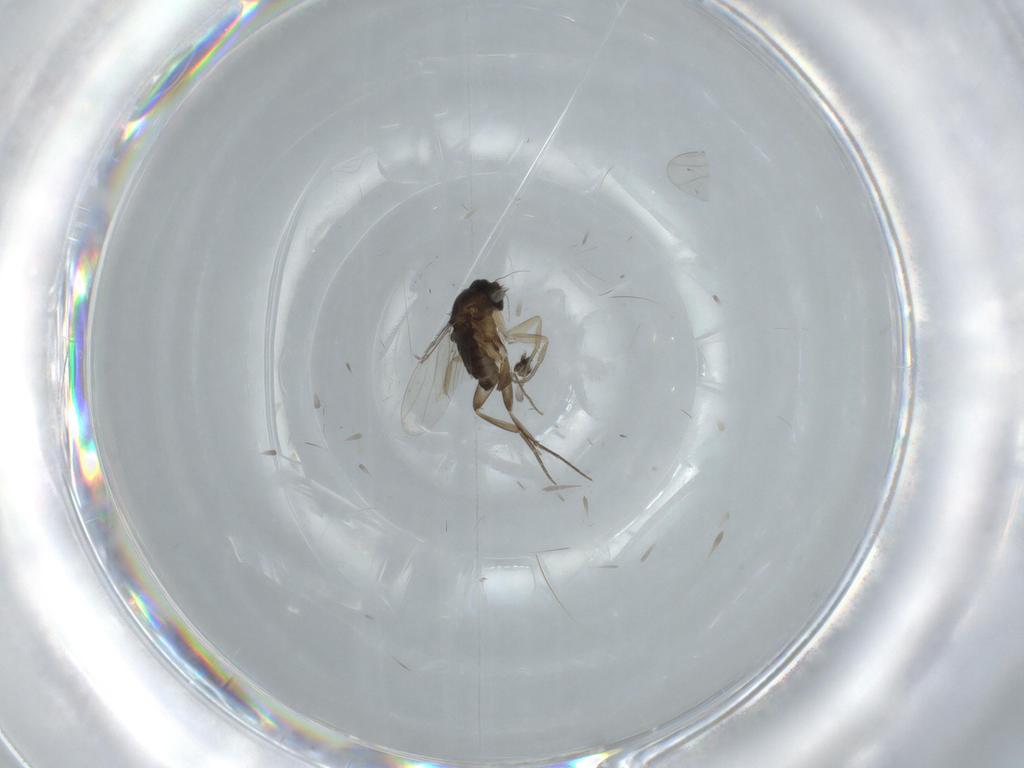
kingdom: Animalia
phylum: Arthropoda
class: Insecta
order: Diptera
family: Phoridae
